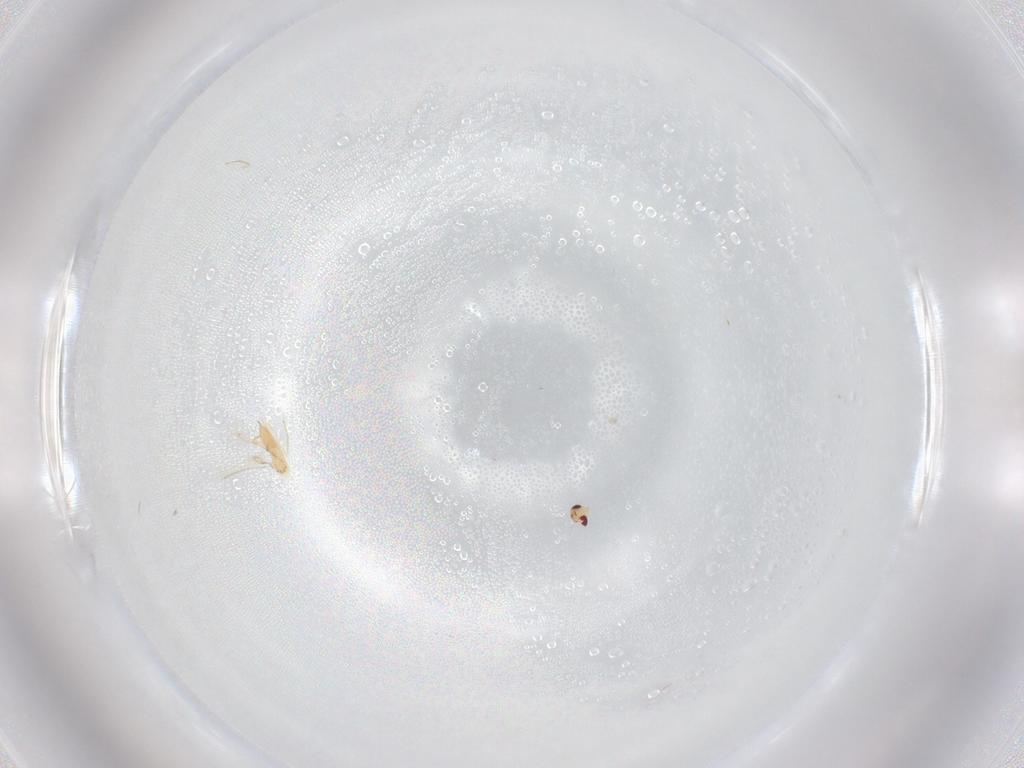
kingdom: Animalia
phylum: Arthropoda
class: Insecta
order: Hymenoptera
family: Mymaridae
